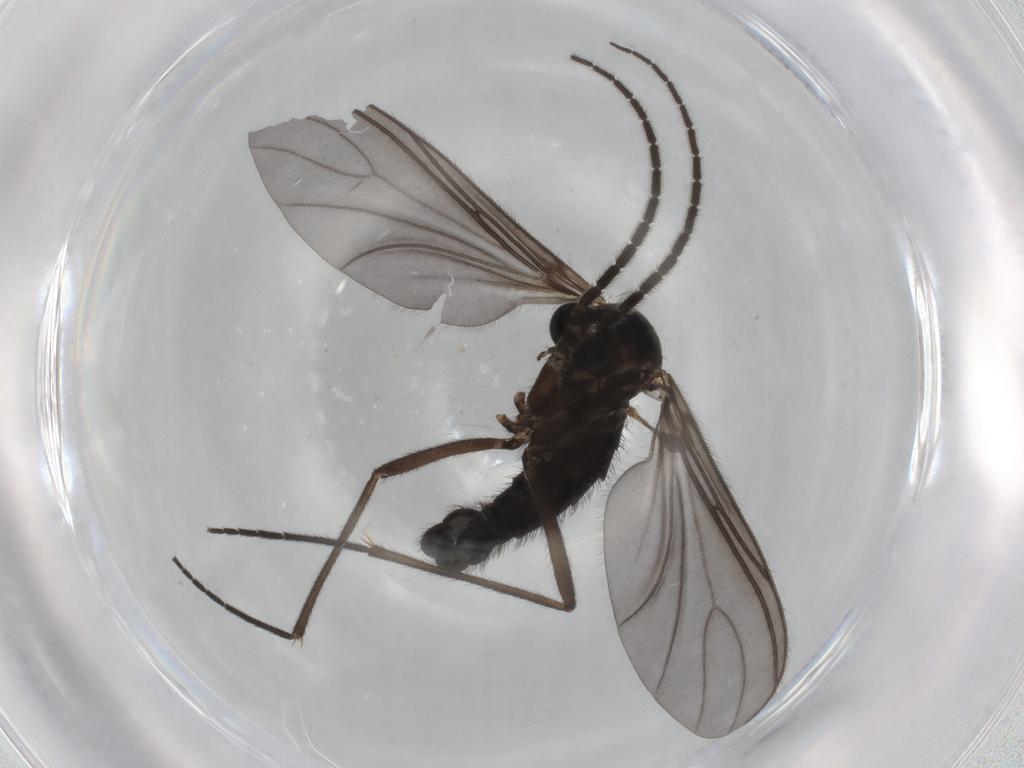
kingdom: Animalia
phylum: Arthropoda
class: Insecta
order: Diptera
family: Sciaridae
